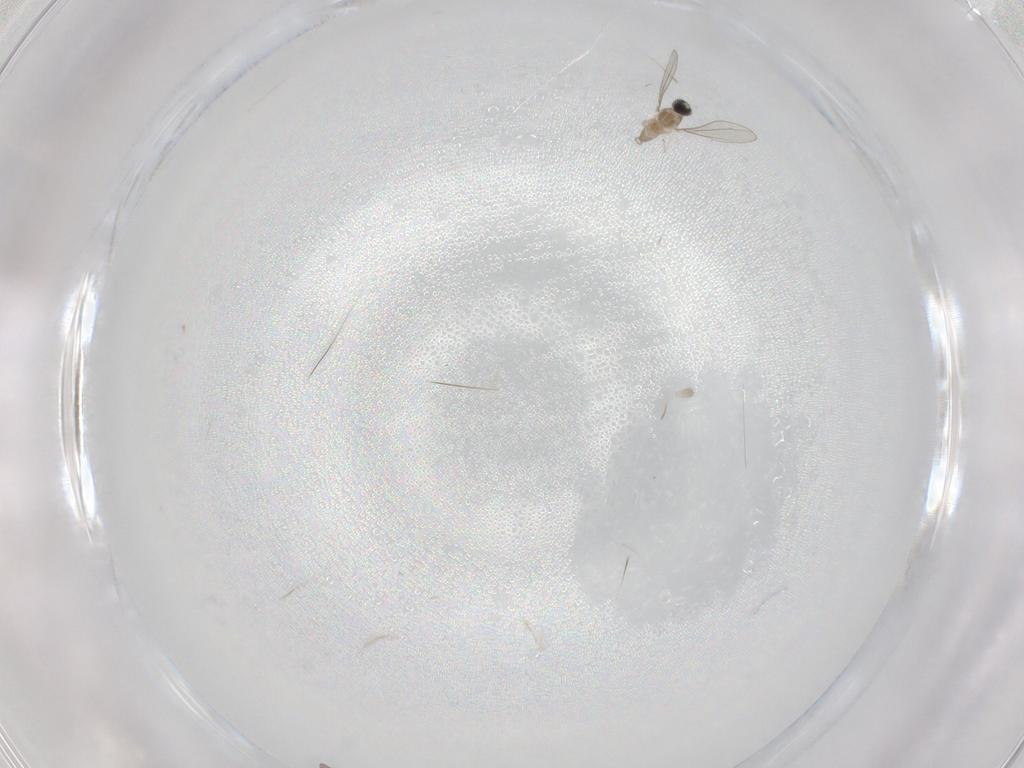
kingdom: Animalia
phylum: Arthropoda
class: Insecta
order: Diptera
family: Cecidomyiidae
